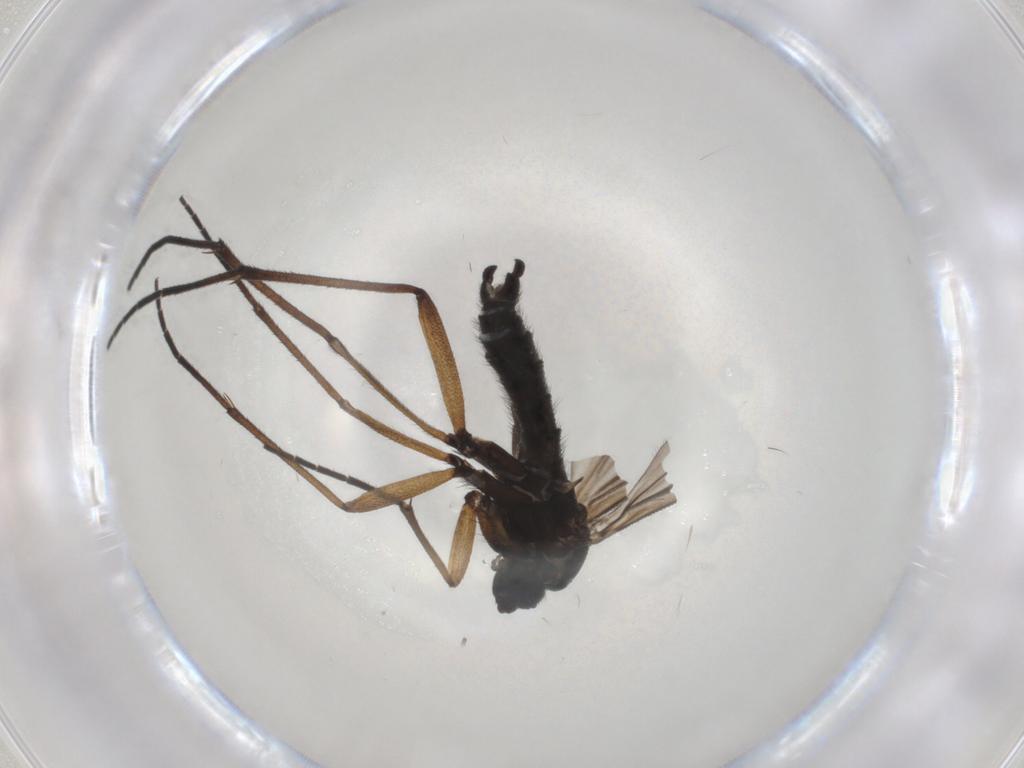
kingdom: Animalia
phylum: Arthropoda
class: Insecta
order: Diptera
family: Sciaridae
